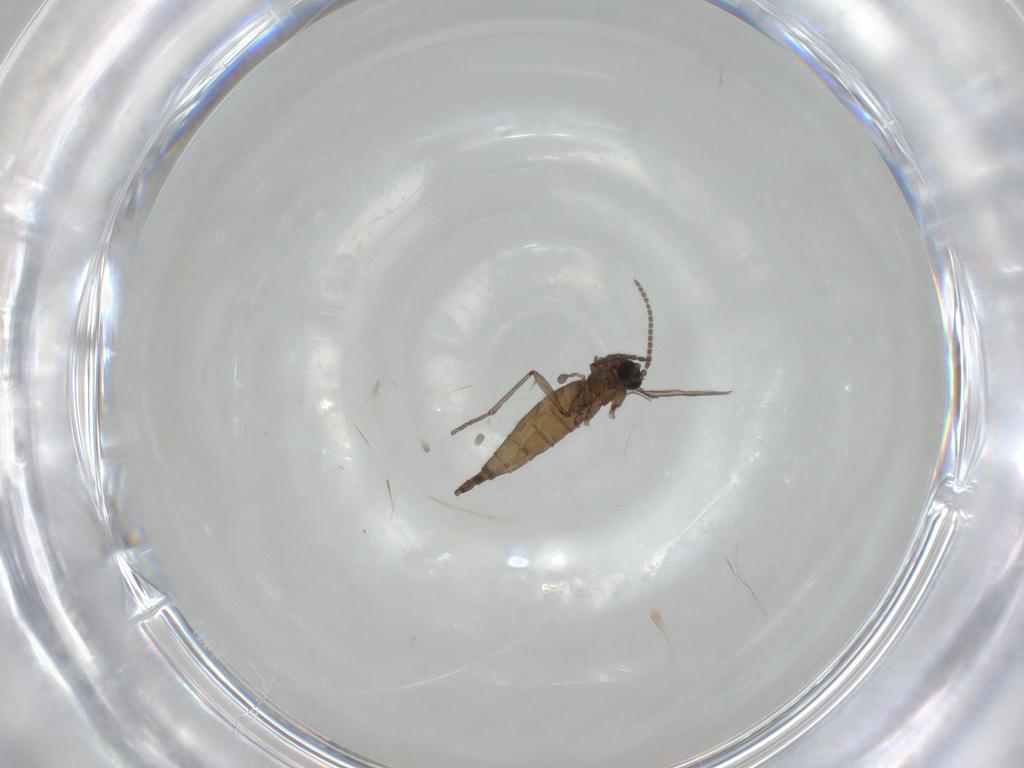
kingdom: Animalia
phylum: Arthropoda
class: Insecta
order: Diptera
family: Sciaridae
